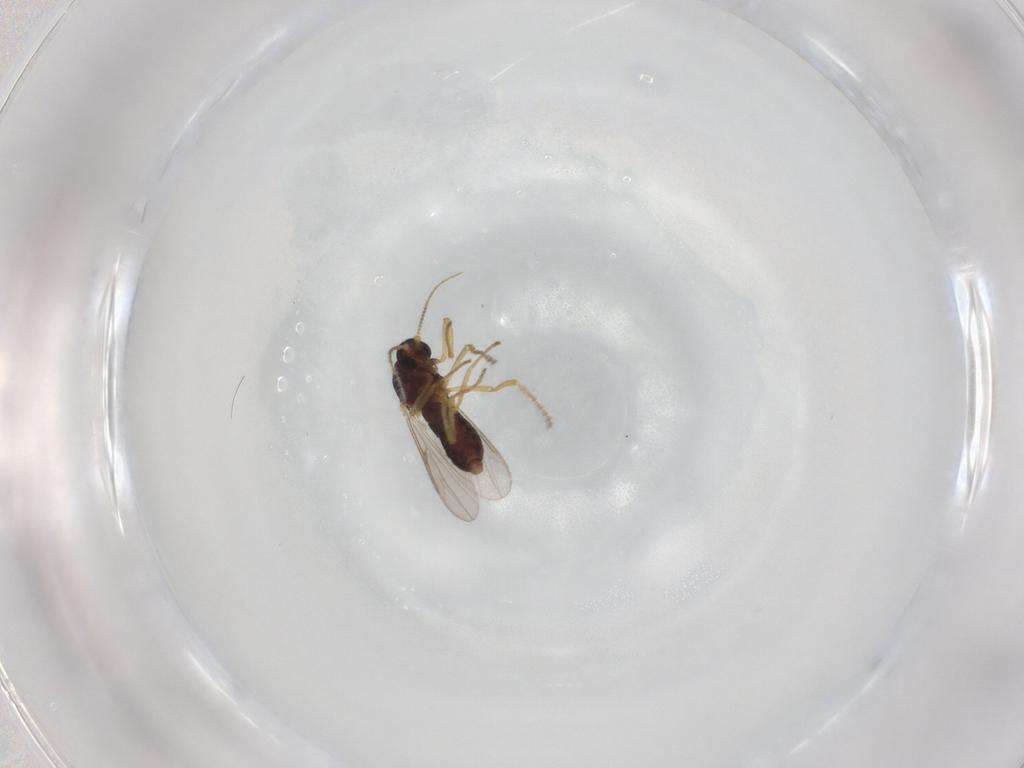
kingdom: Animalia
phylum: Arthropoda
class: Insecta
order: Diptera
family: Ceratopogonidae
